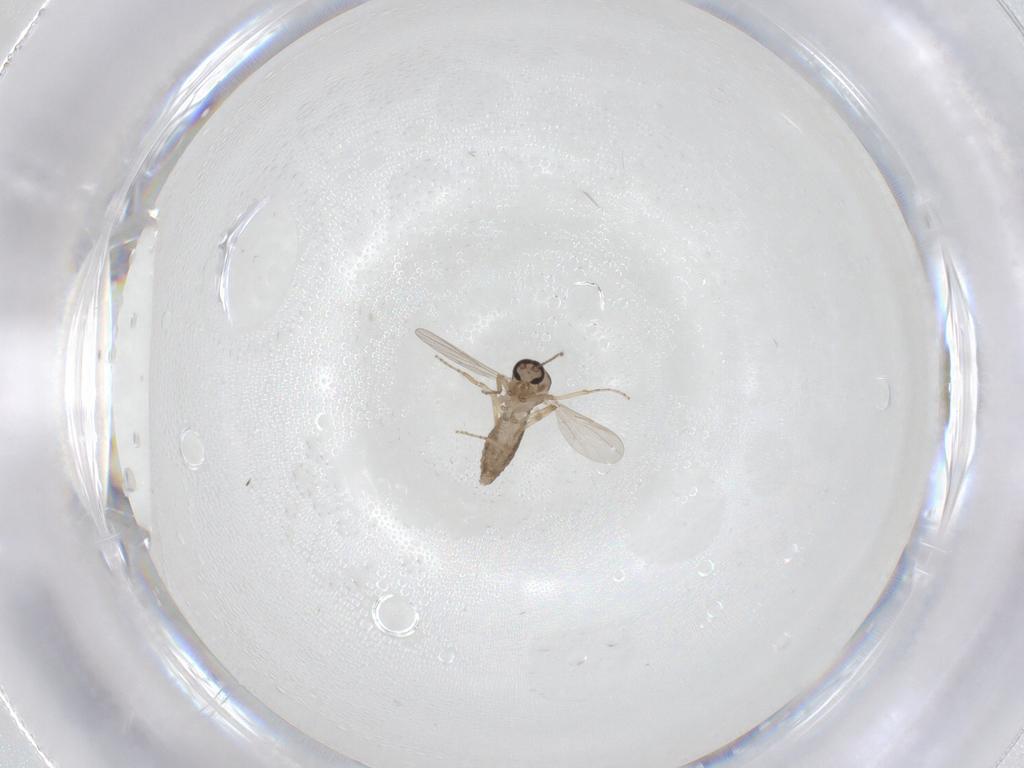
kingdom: Animalia
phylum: Arthropoda
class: Insecta
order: Diptera
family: Ceratopogonidae
